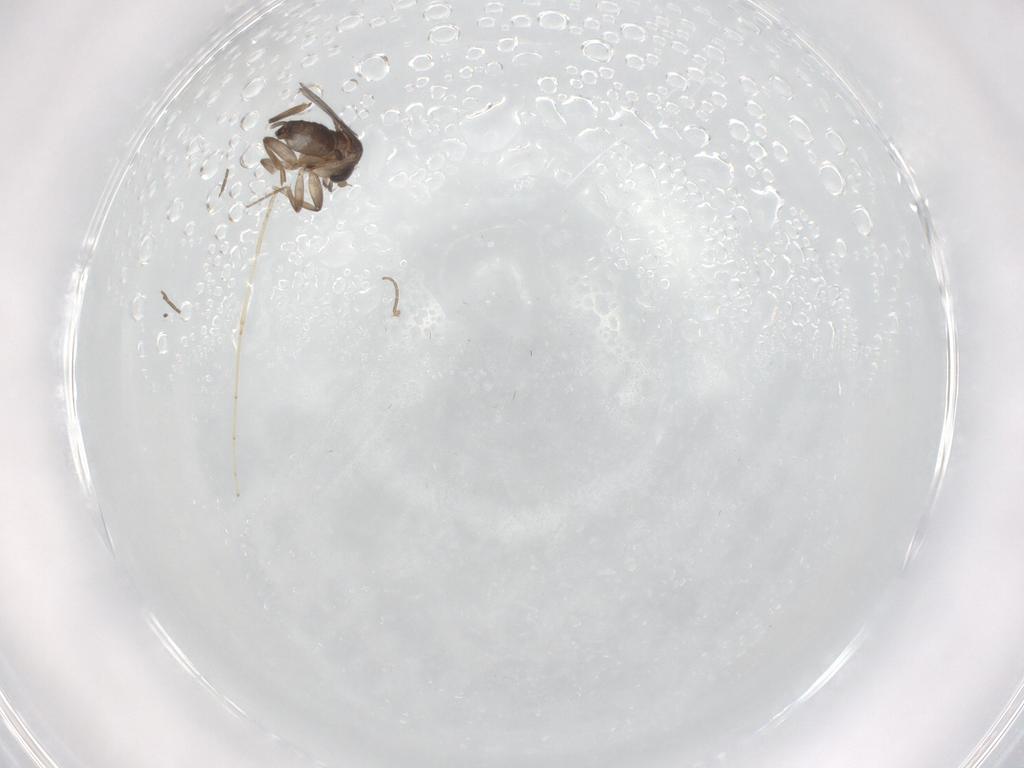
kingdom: Animalia
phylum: Arthropoda
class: Insecta
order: Diptera
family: Phoridae
